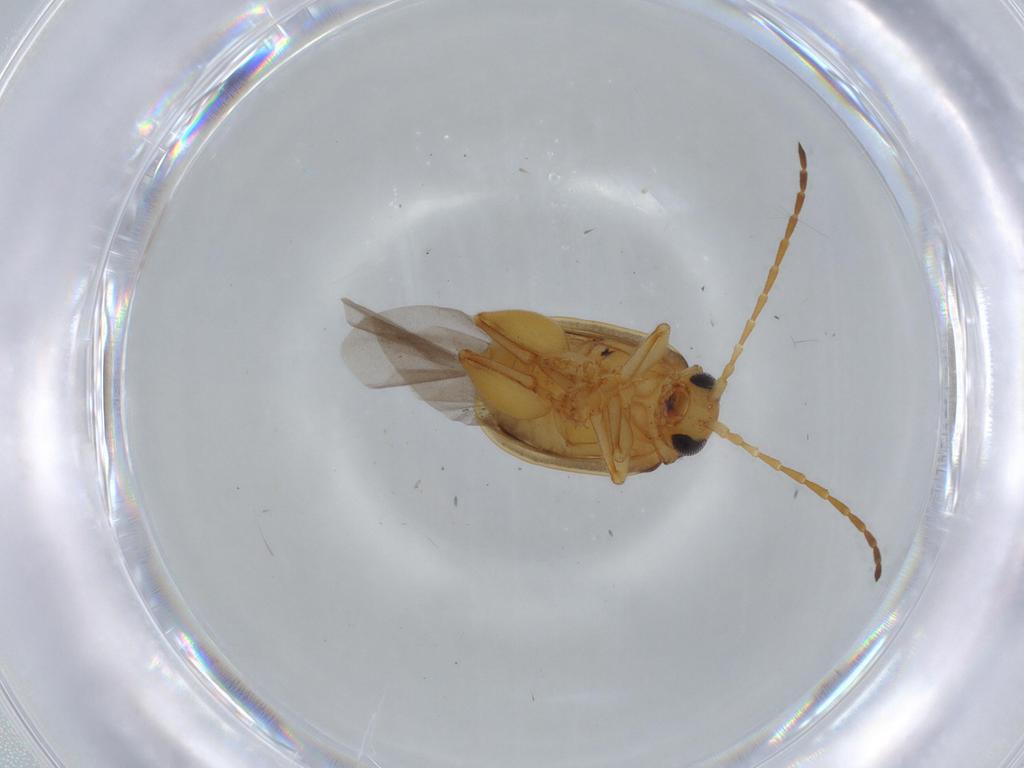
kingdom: Animalia
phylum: Arthropoda
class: Insecta
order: Coleoptera
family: Chrysomelidae
